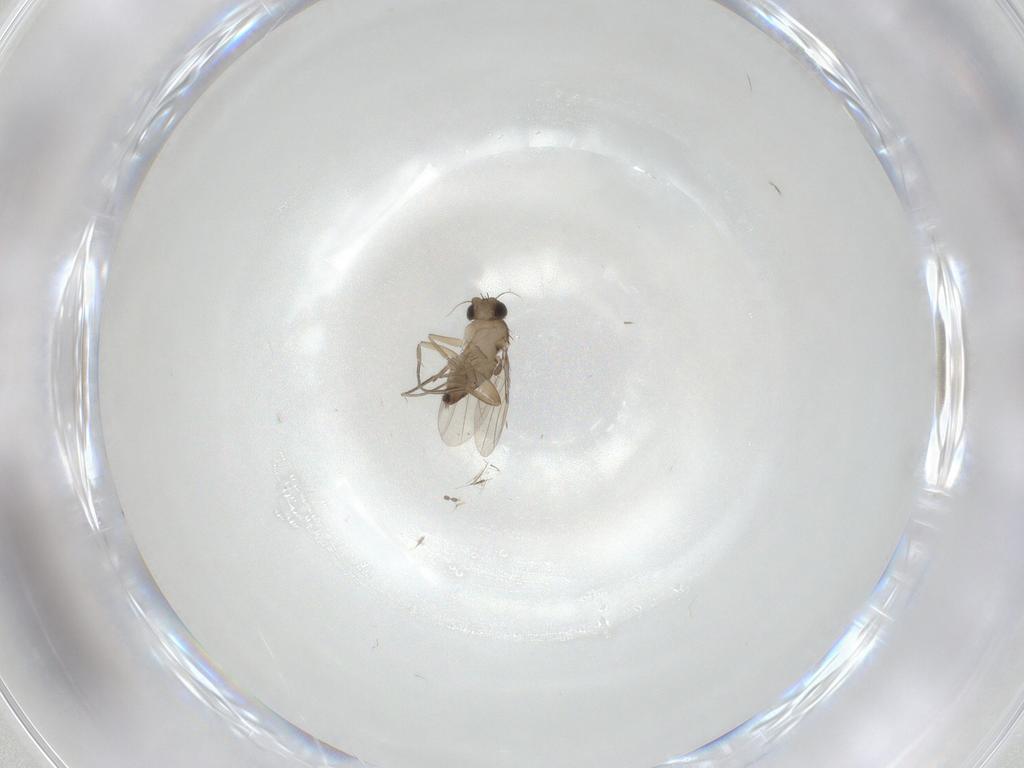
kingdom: Animalia
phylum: Arthropoda
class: Insecta
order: Diptera
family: Phoridae
